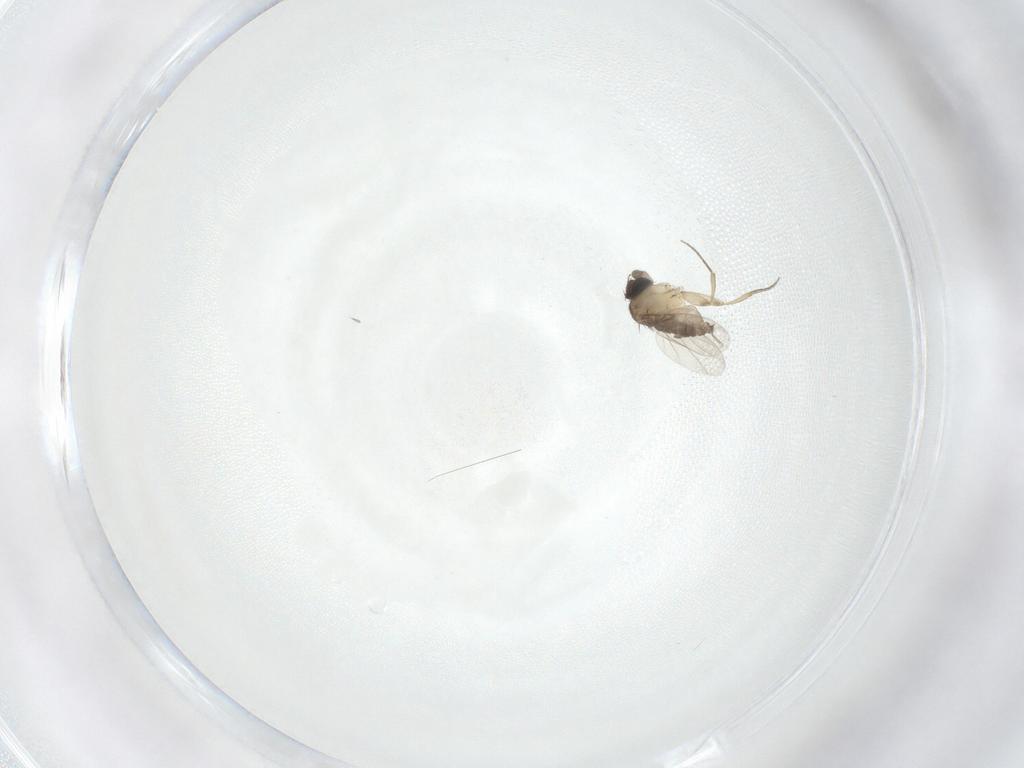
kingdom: Animalia
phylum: Arthropoda
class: Insecta
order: Diptera
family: Phoridae
